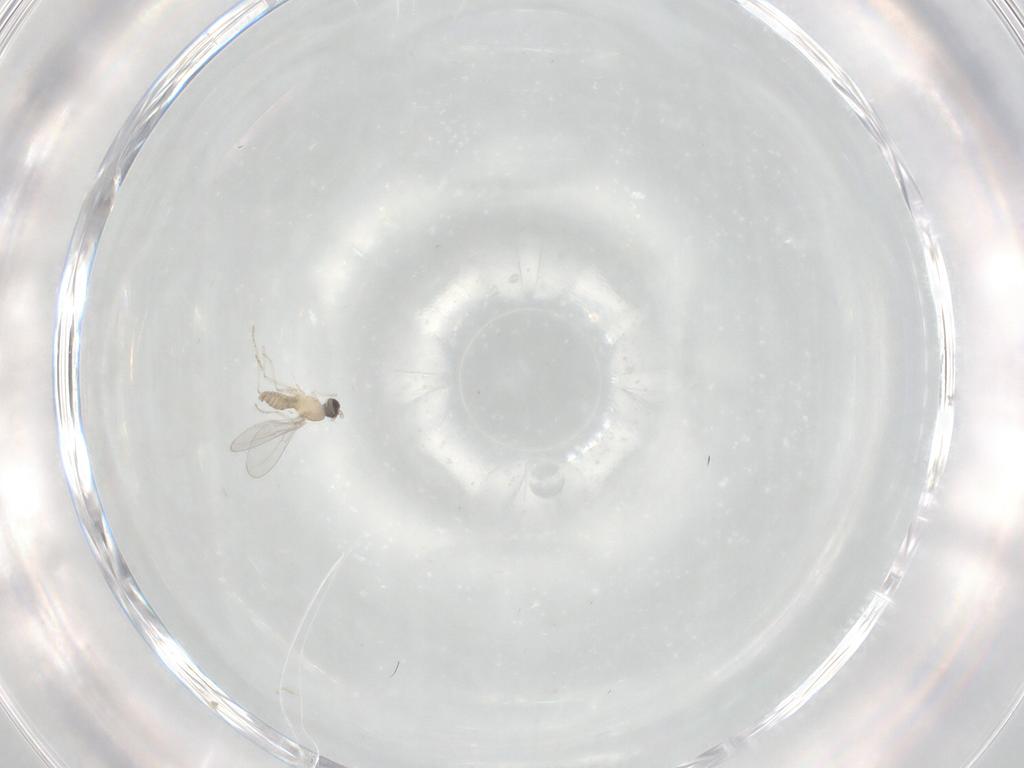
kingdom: Animalia
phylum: Arthropoda
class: Insecta
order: Diptera
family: Cecidomyiidae
